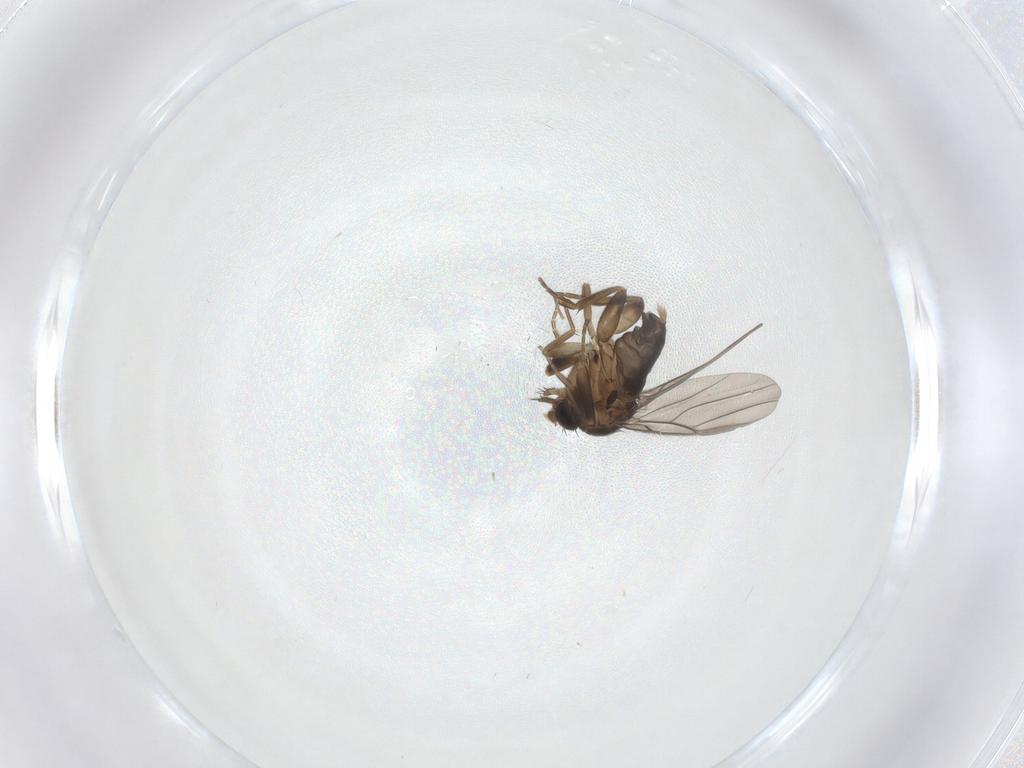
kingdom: Animalia
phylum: Arthropoda
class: Insecta
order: Diptera
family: Phoridae
